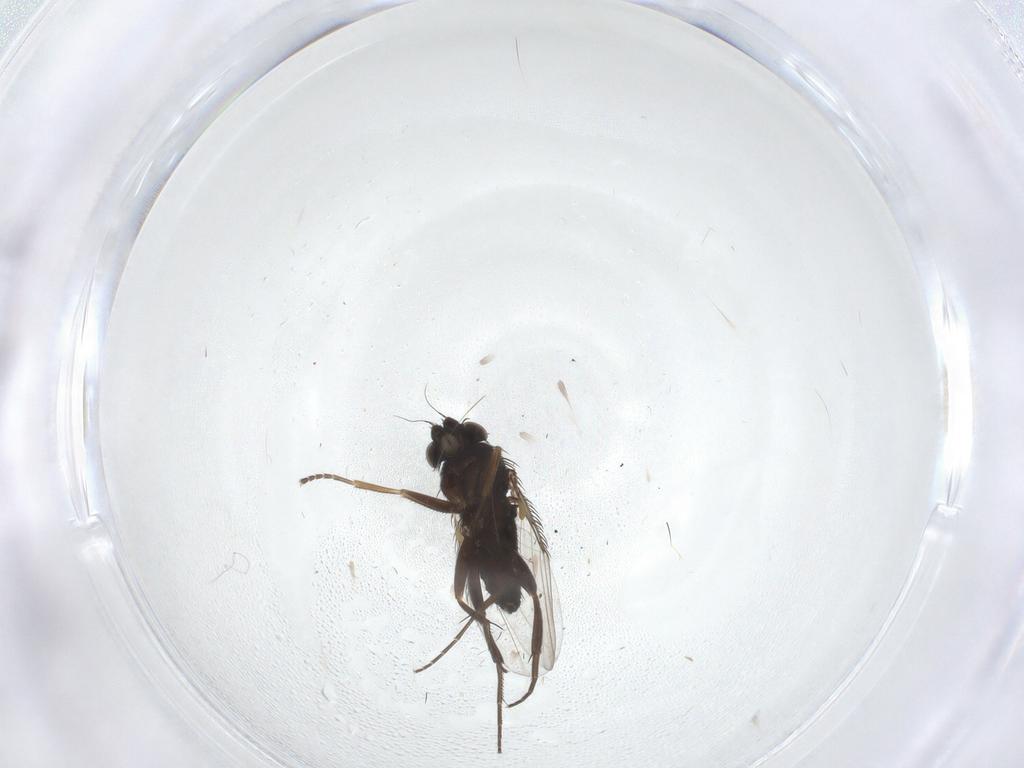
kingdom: Animalia
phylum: Arthropoda
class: Insecta
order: Diptera
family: Phoridae
